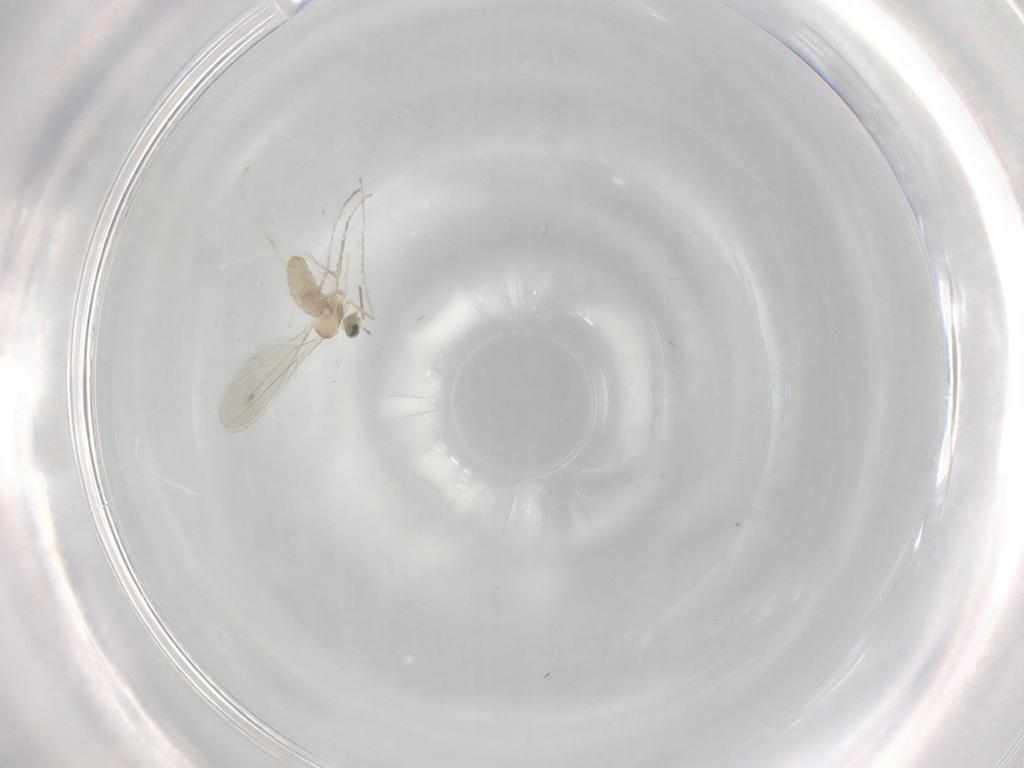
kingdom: Animalia
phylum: Arthropoda
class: Insecta
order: Diptera
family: Cecidomyiidae
